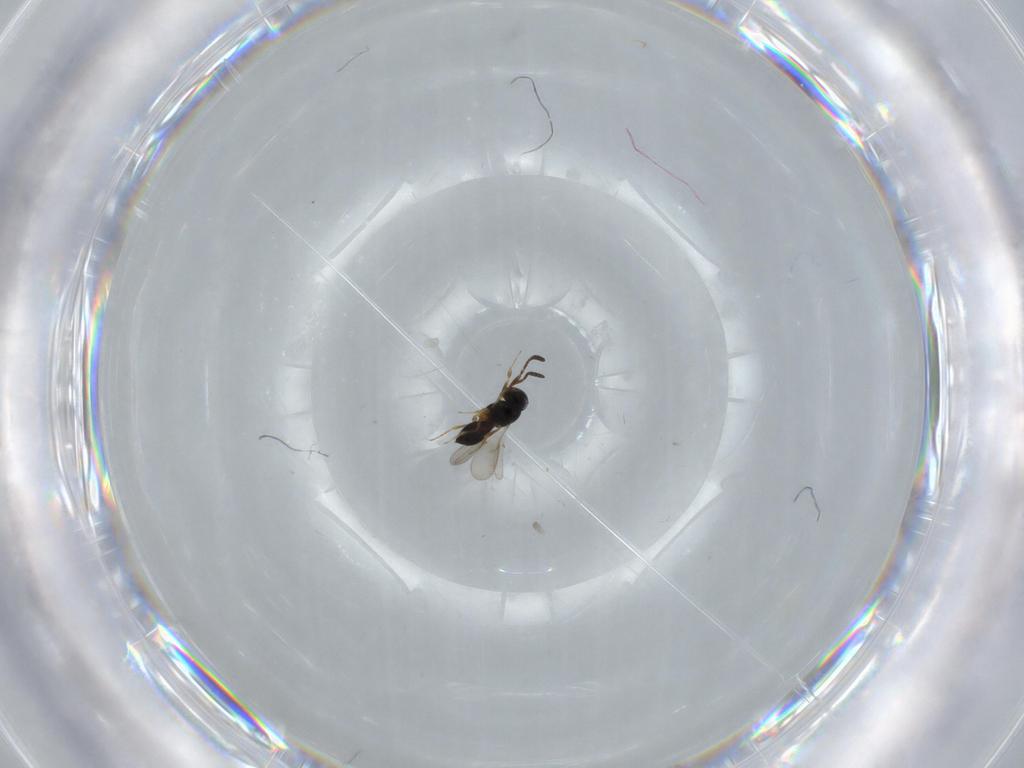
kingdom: Animalia
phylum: Arthropoda
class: Insecta
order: Hymenoptera
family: Scelionidae
